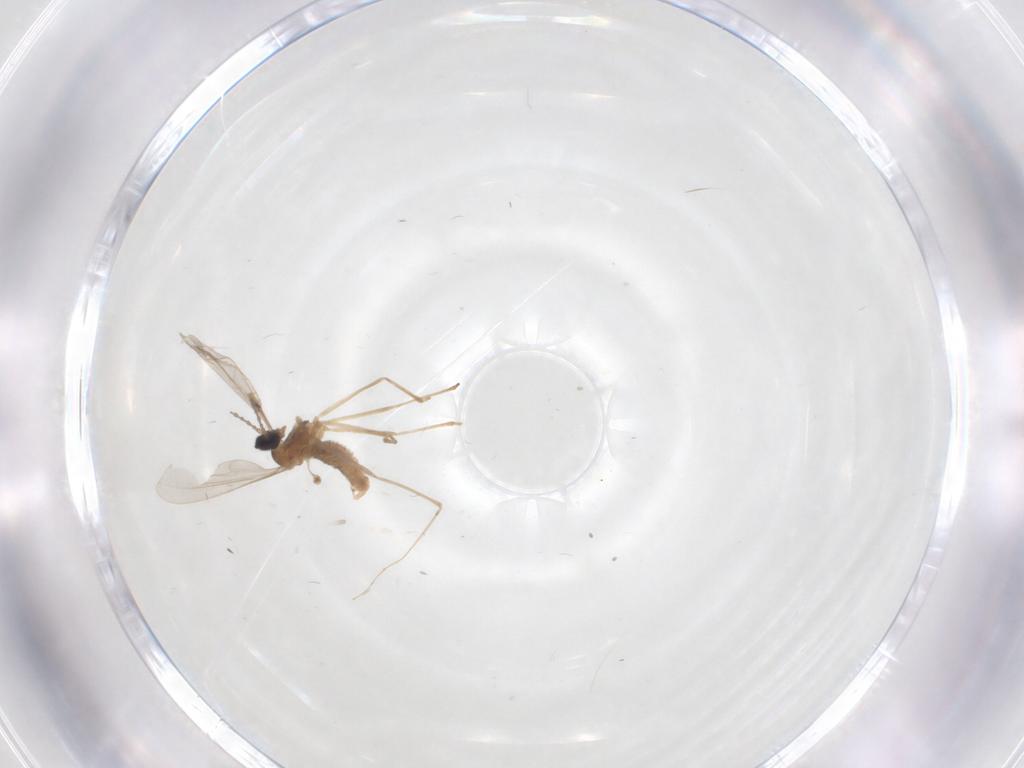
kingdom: Animalia
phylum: Arthropoda
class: Insecta
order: Diptera
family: Cecidomyiidae
